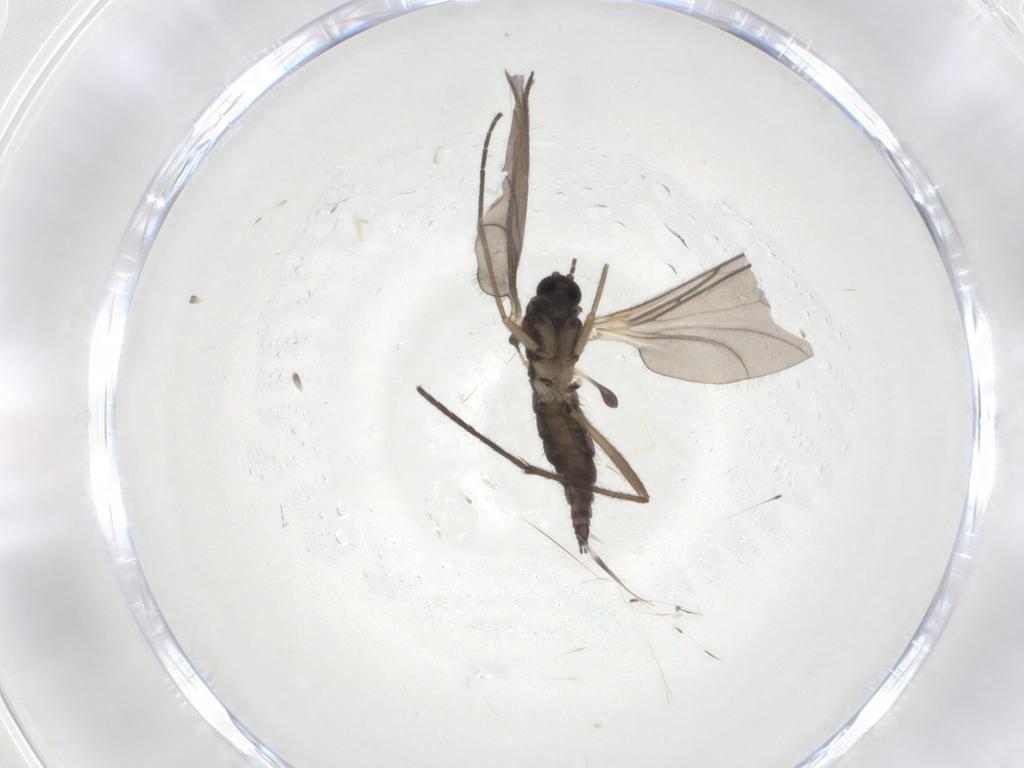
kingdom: Animalia
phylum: Arthropoda
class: Insecta
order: Diptera
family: Sciaridae
